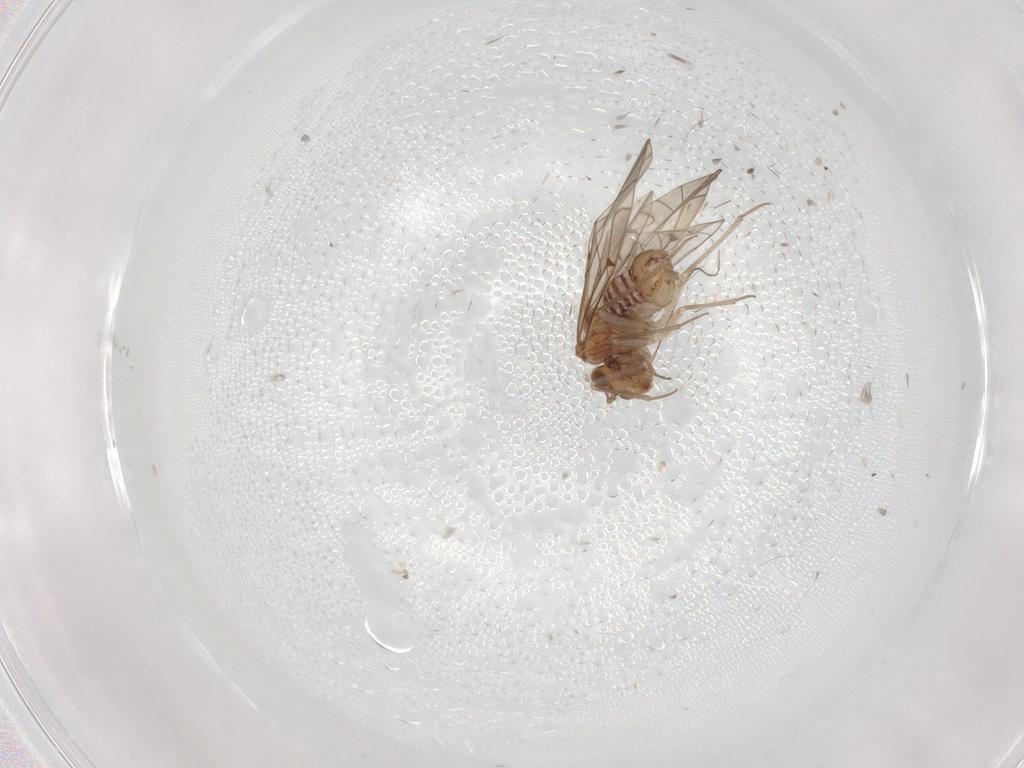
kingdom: Animalia
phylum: Arthropoda
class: Insecta
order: Psocodea
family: Lachesillidae
